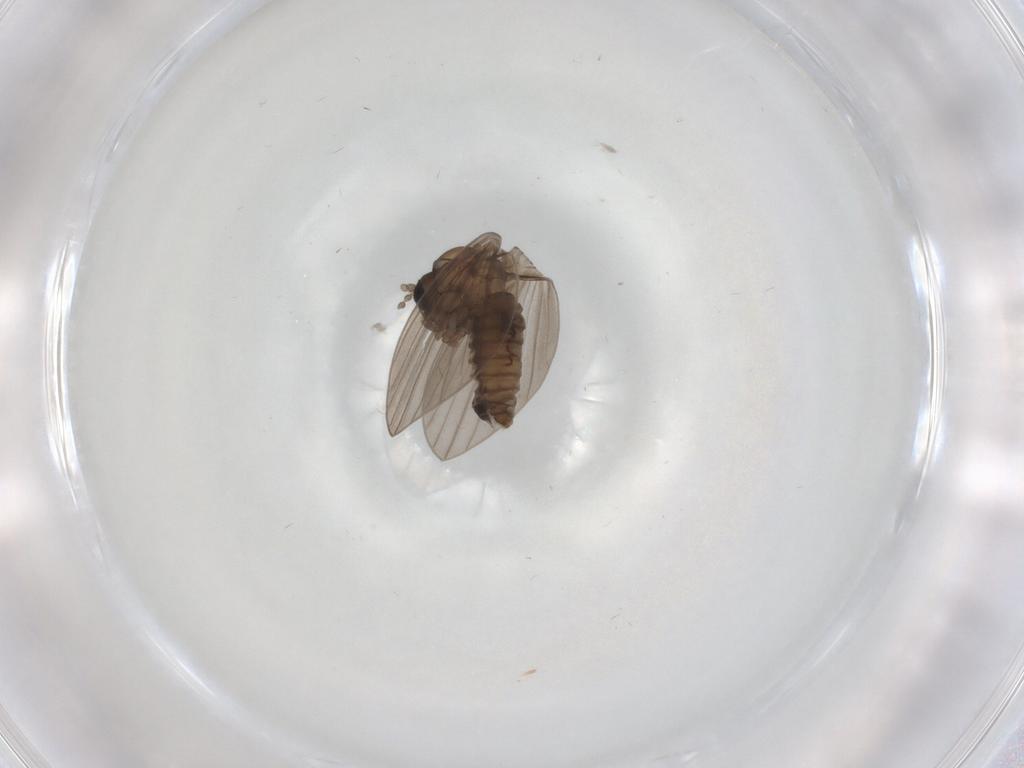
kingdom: Animalia
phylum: Arthropoda
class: Insecta
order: Diptera
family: Psychodidae
